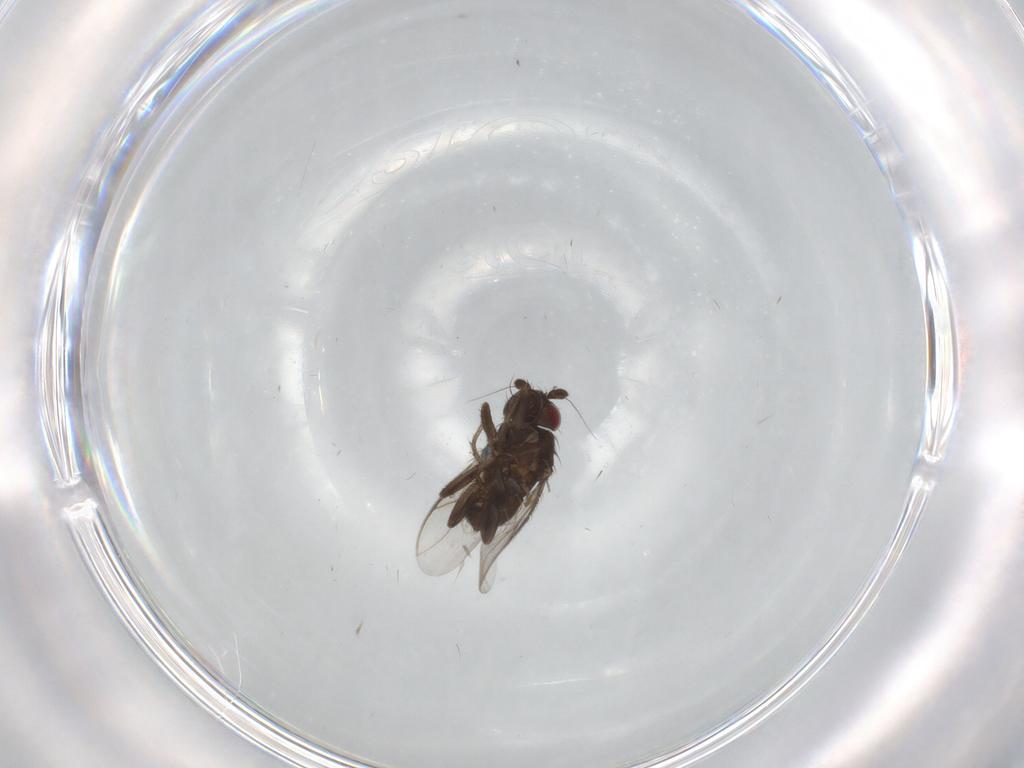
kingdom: Animalia
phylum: Arthropoda
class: Insecta
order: Diptera
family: Sphaeroceridae
